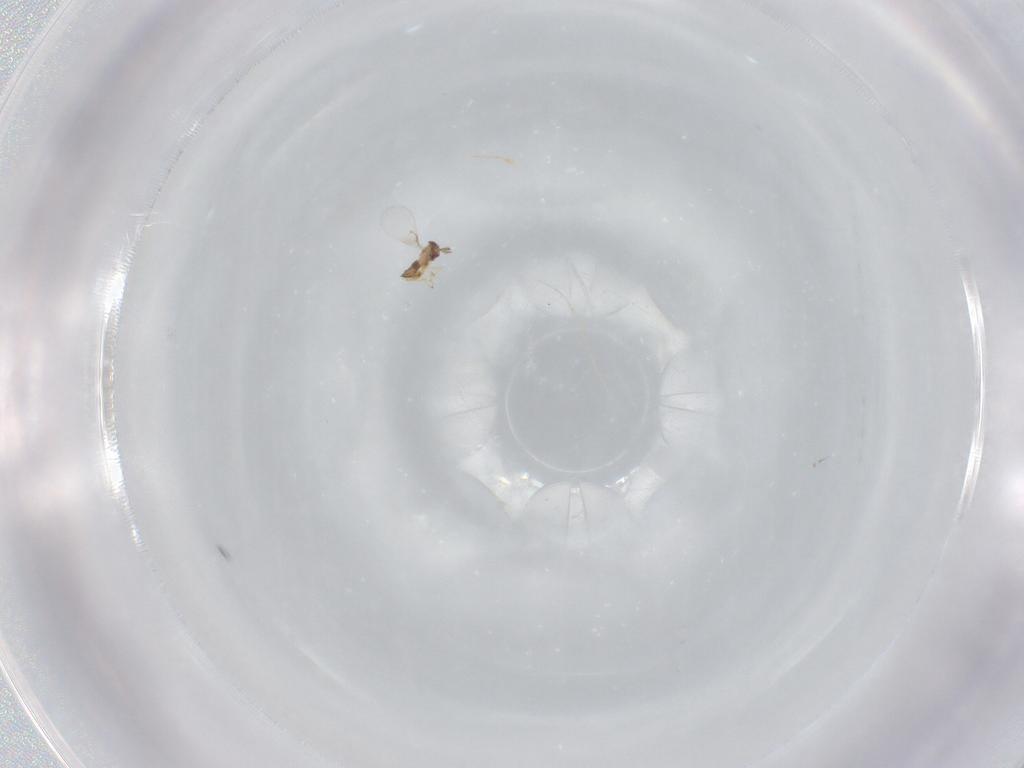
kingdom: Animalia
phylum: Arthropoda
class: Insecta
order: Hymenoptera
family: Trichogrammatidae
